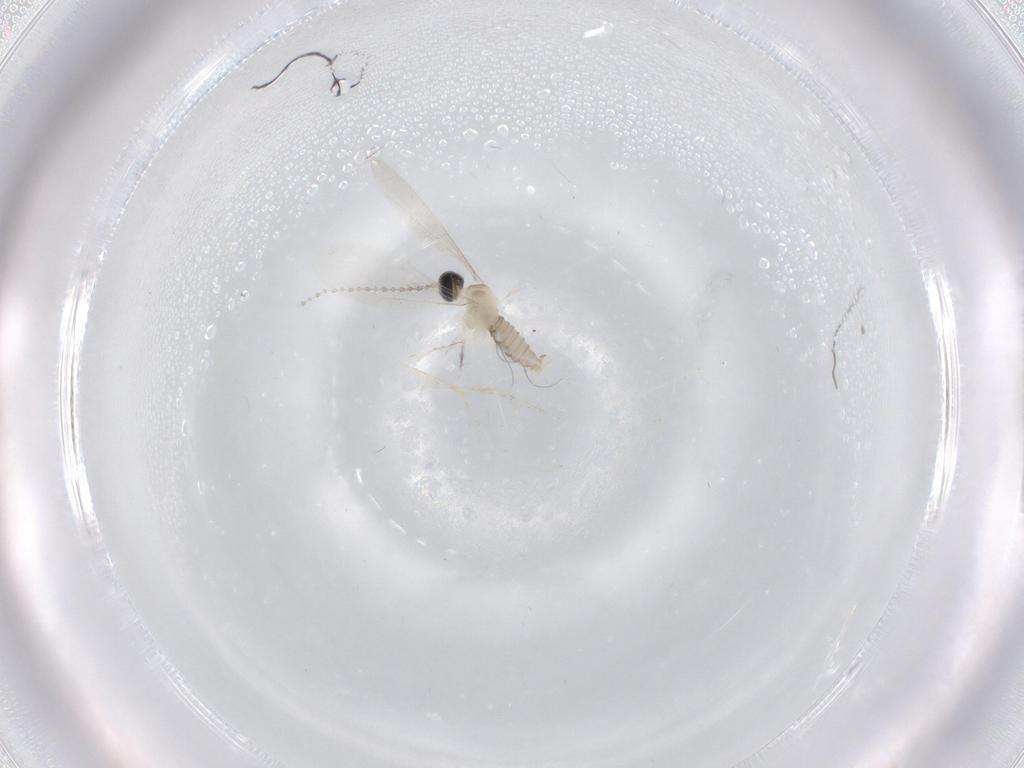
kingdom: Animalia
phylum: Arthropoda
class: Insecta
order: Diptera
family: Cecidomyiidae
